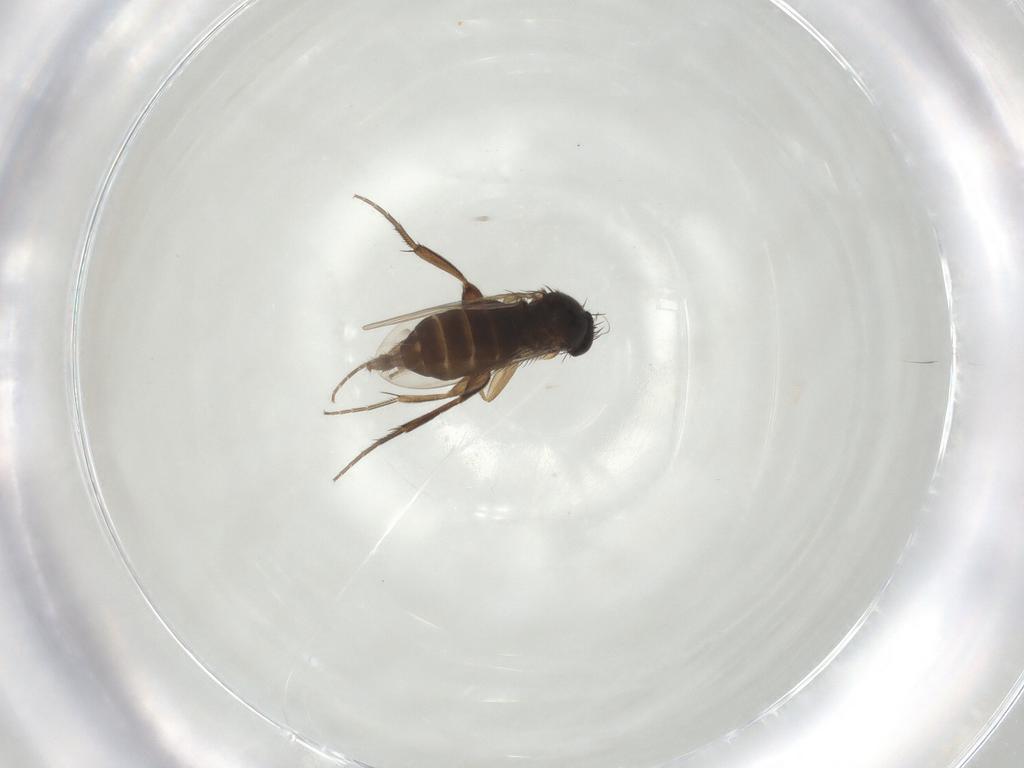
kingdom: Animalia
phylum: Arthropoda
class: Insecta
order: Diptera
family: Phoridae
